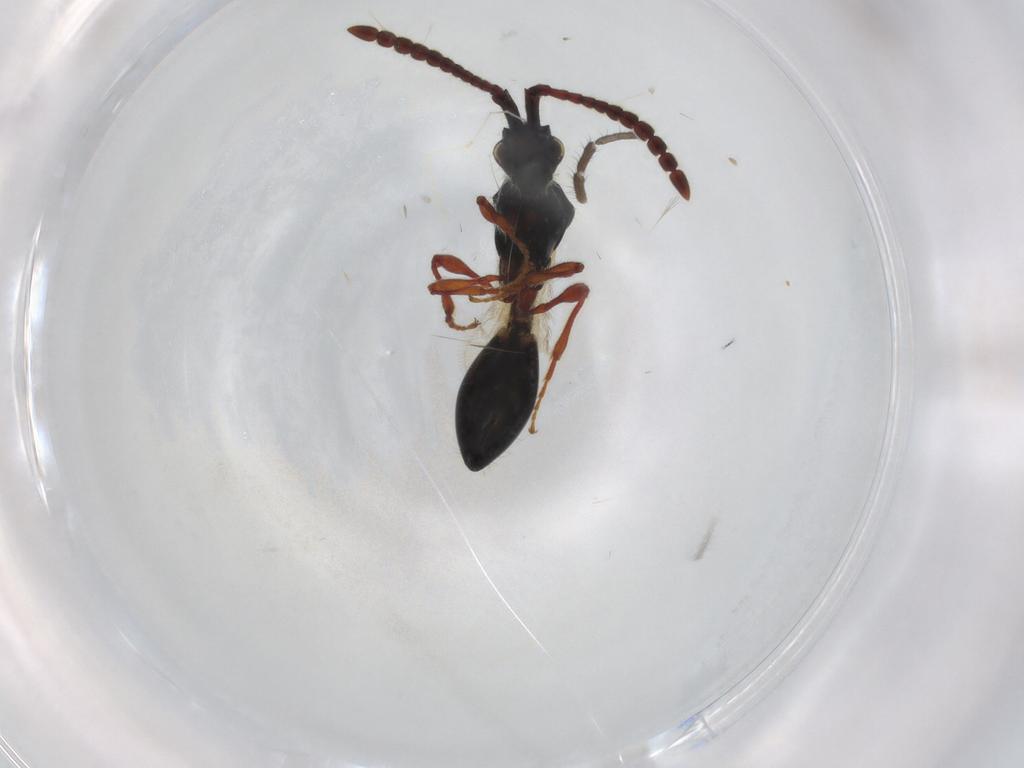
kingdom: Animalia
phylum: Arthropoda
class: Insecta
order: Hymenoptera
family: Diapriidae
